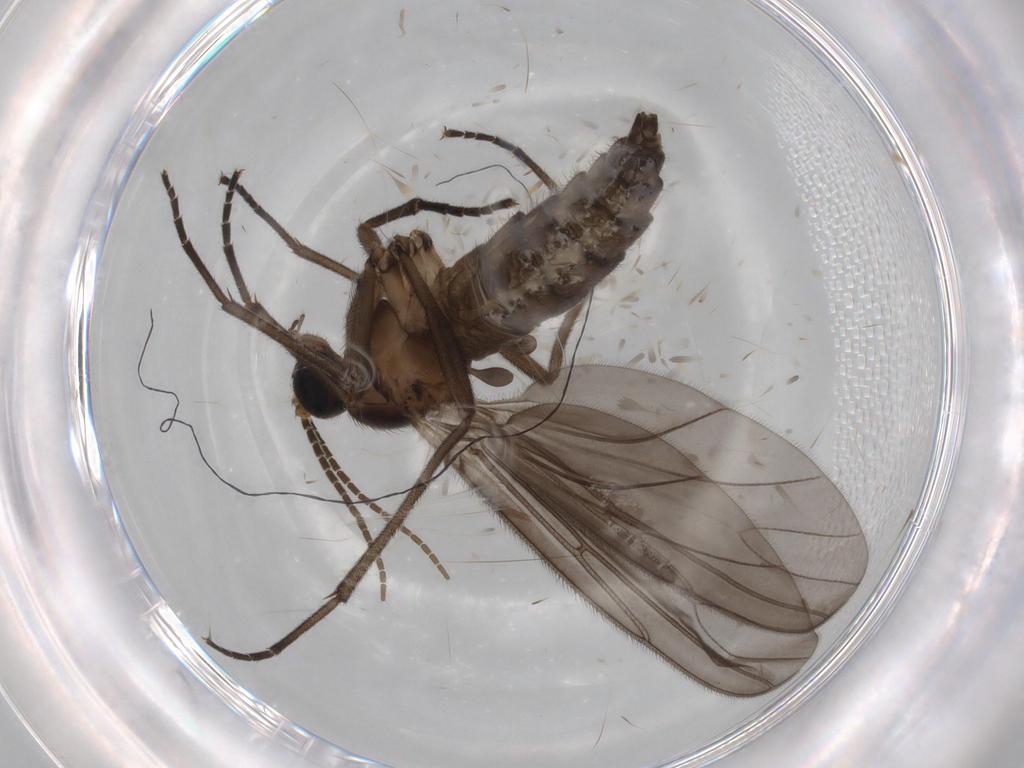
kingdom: Animalia
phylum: Arthropoda
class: Insecta
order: Diptera
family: Sciaridae
